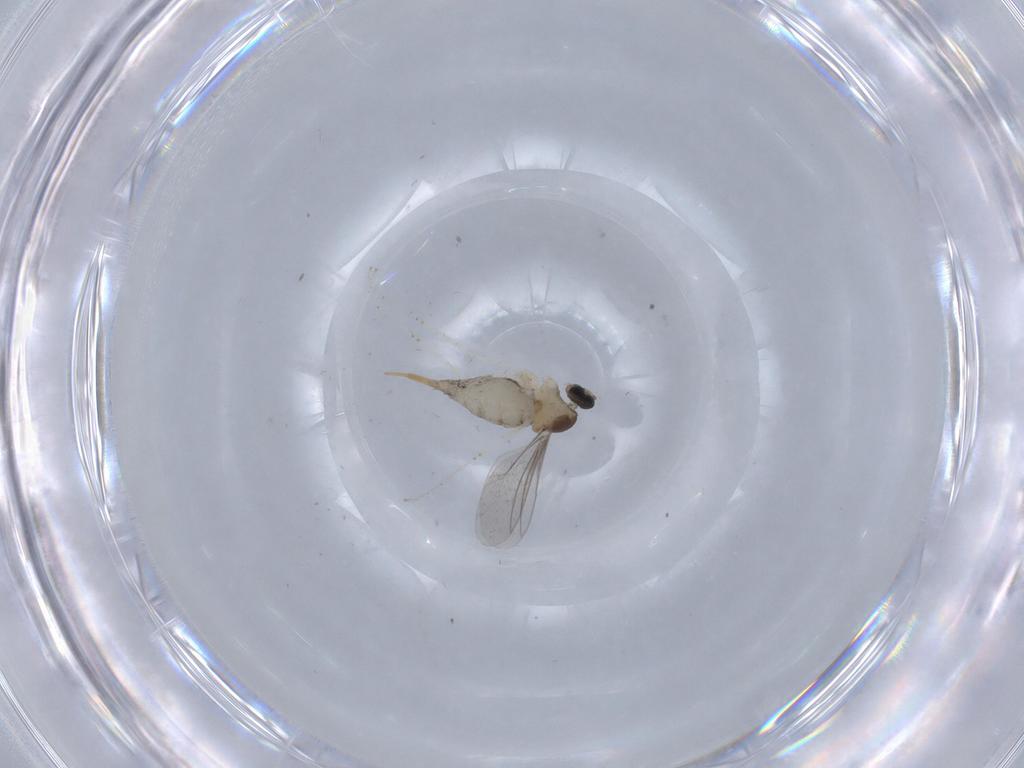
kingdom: Animalia
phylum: Arthropoda
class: Insecta
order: Diptera
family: Cecidomyiidae
